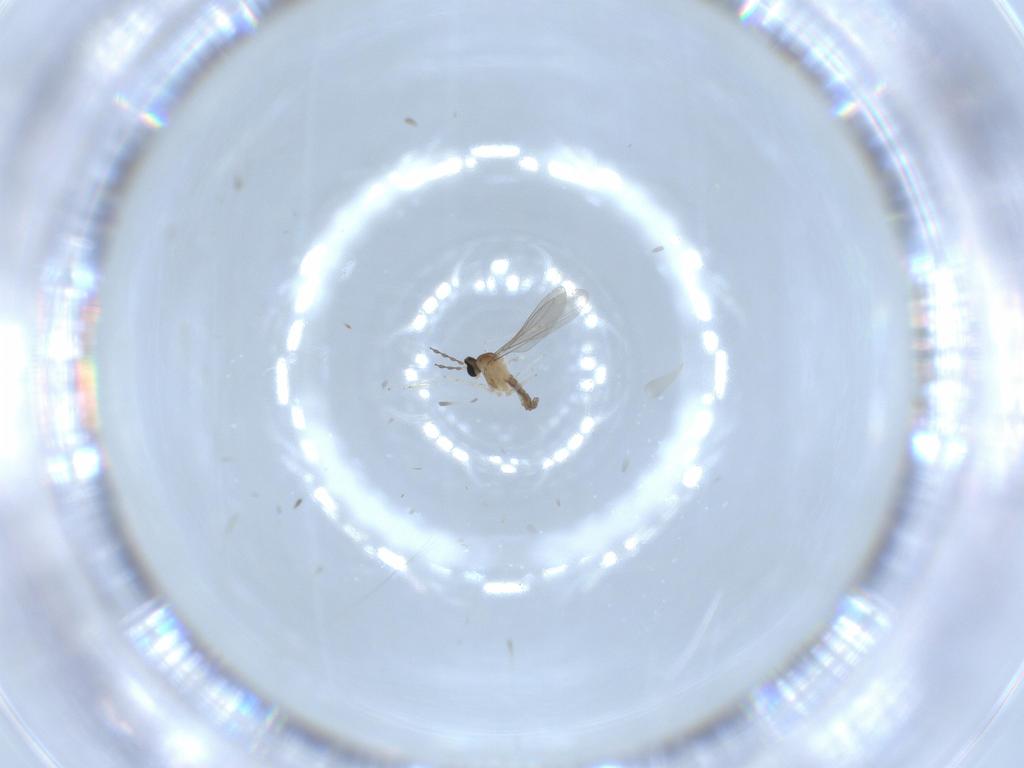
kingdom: Animalia
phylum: Arthropoda
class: Insecta
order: Diptera
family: Cecidomyiidae
